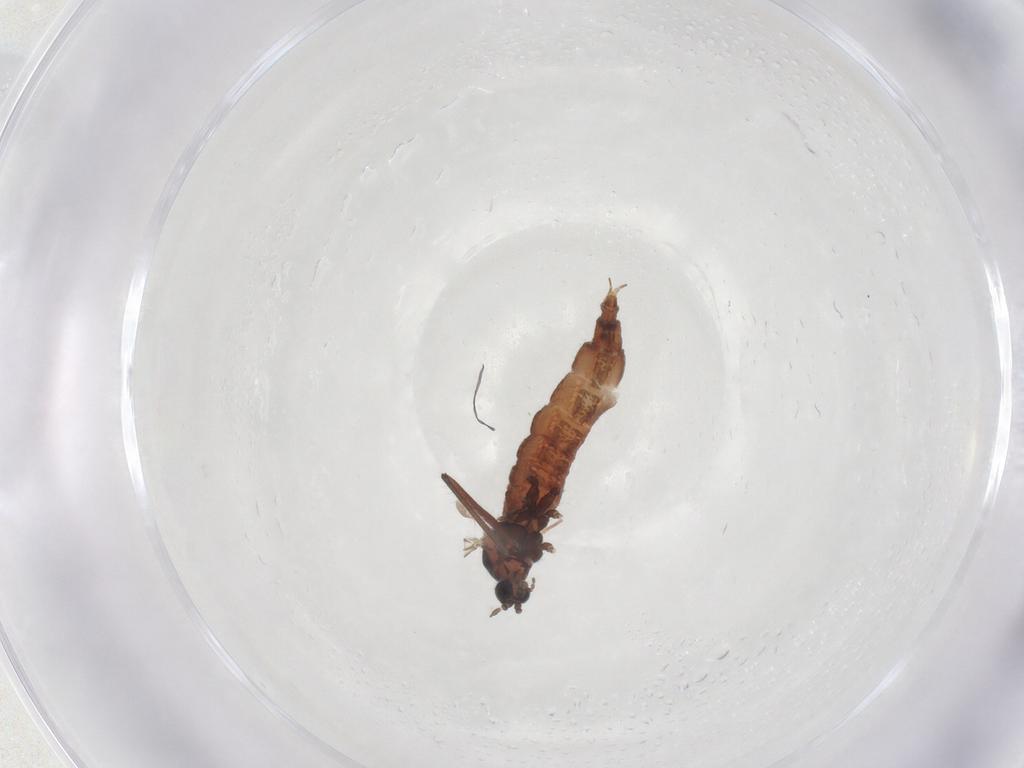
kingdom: Animalia
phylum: Arthropoda
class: Insecta
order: Diptera
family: Cecidomyiidae
